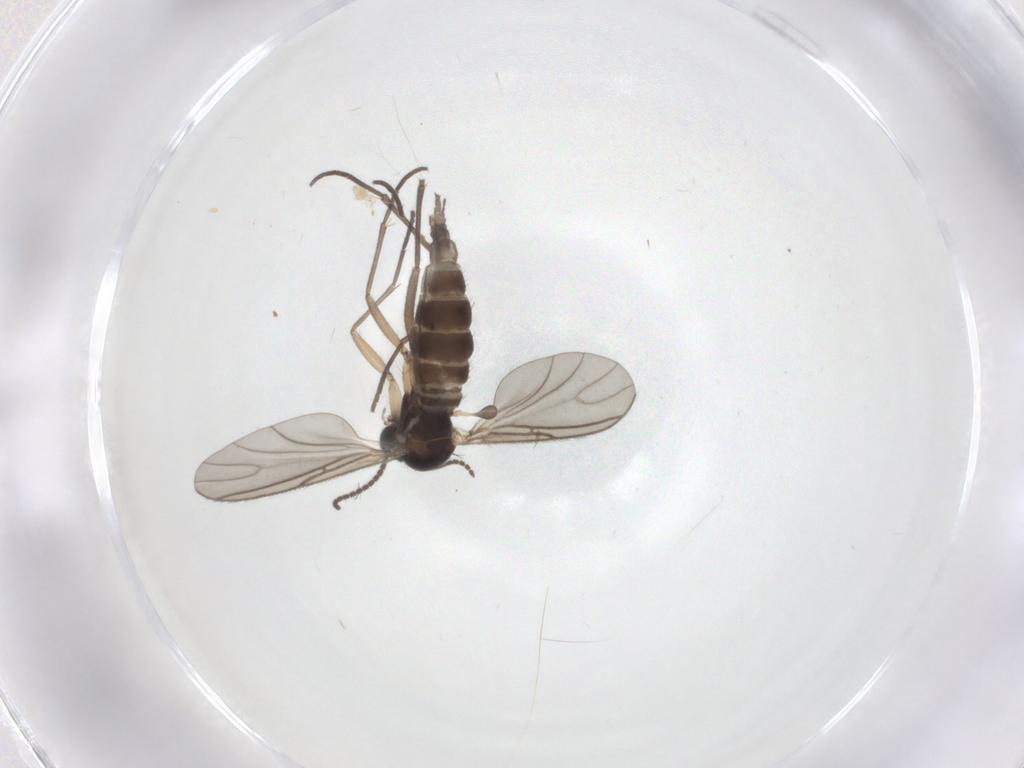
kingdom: Animalia
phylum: Arthropoda
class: Insecta
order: Diptera
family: Sciaridae
